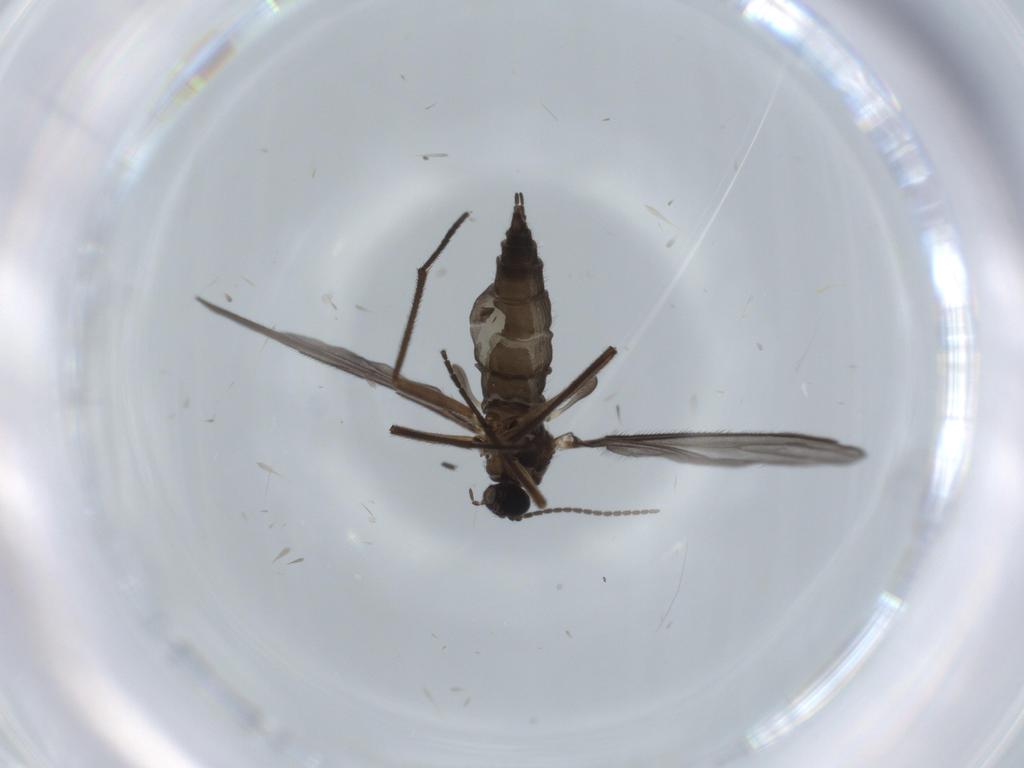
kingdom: Animalia
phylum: Arthropoda
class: Insecta
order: Diptera
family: Sciaridae
